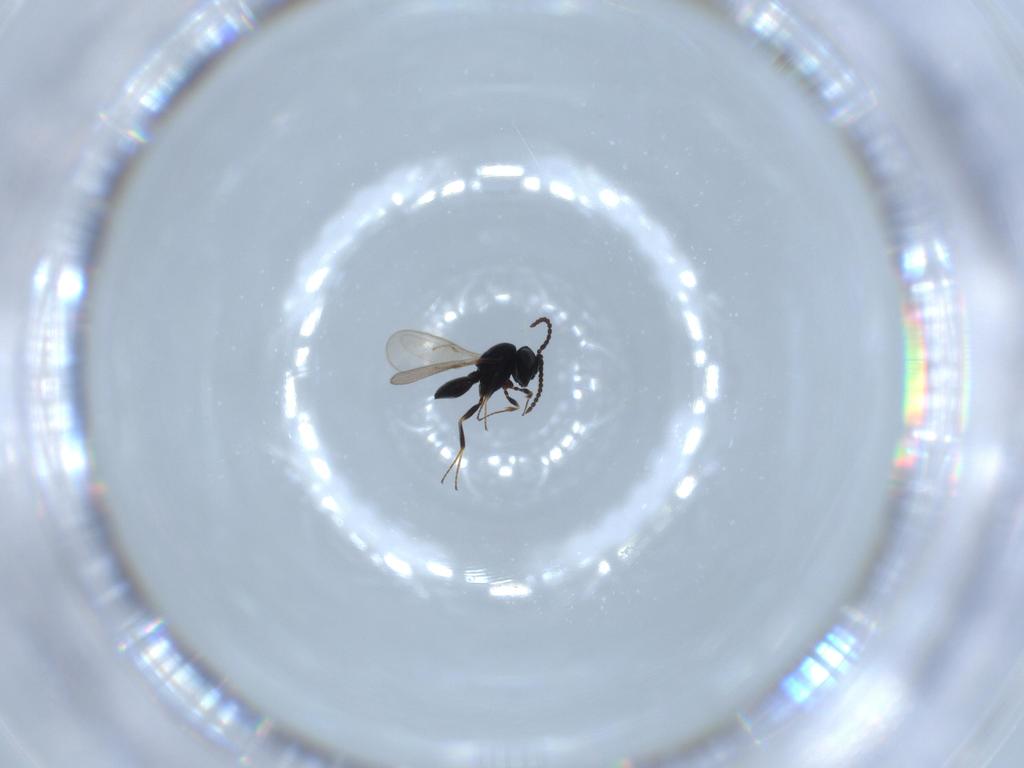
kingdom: Animalia
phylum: Arthropoda
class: Insecta
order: Hymenoptera
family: Scelionidae
